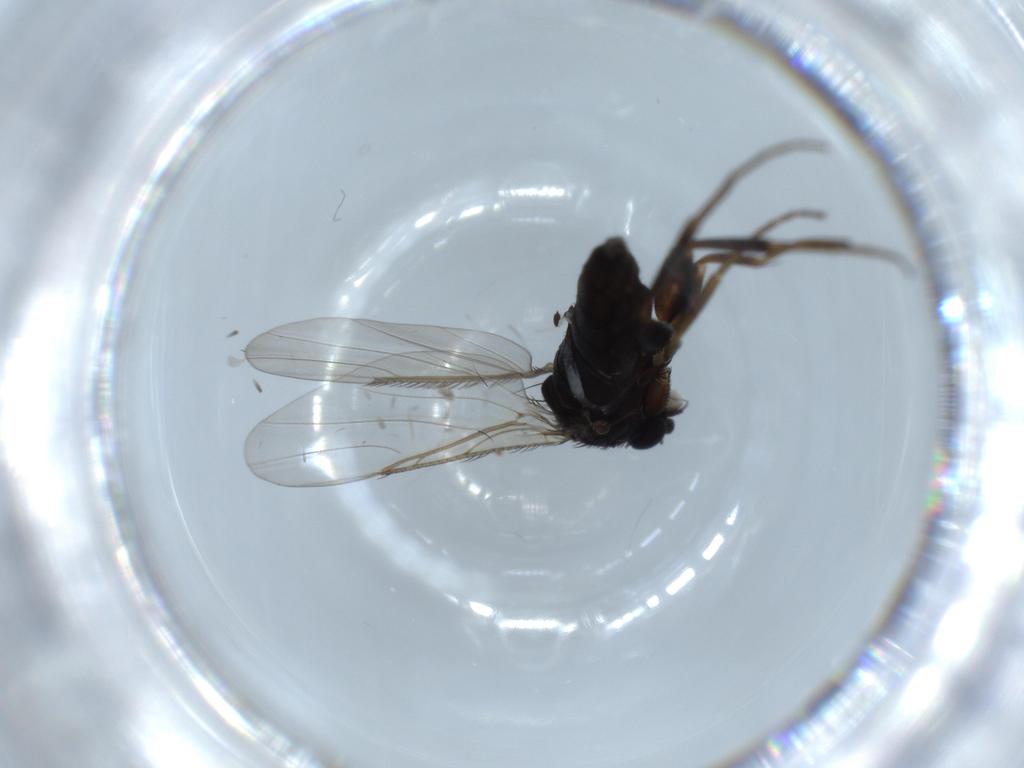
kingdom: Animalia
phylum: Arthropoda
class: Insecta
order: Diptera
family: Phoridae
